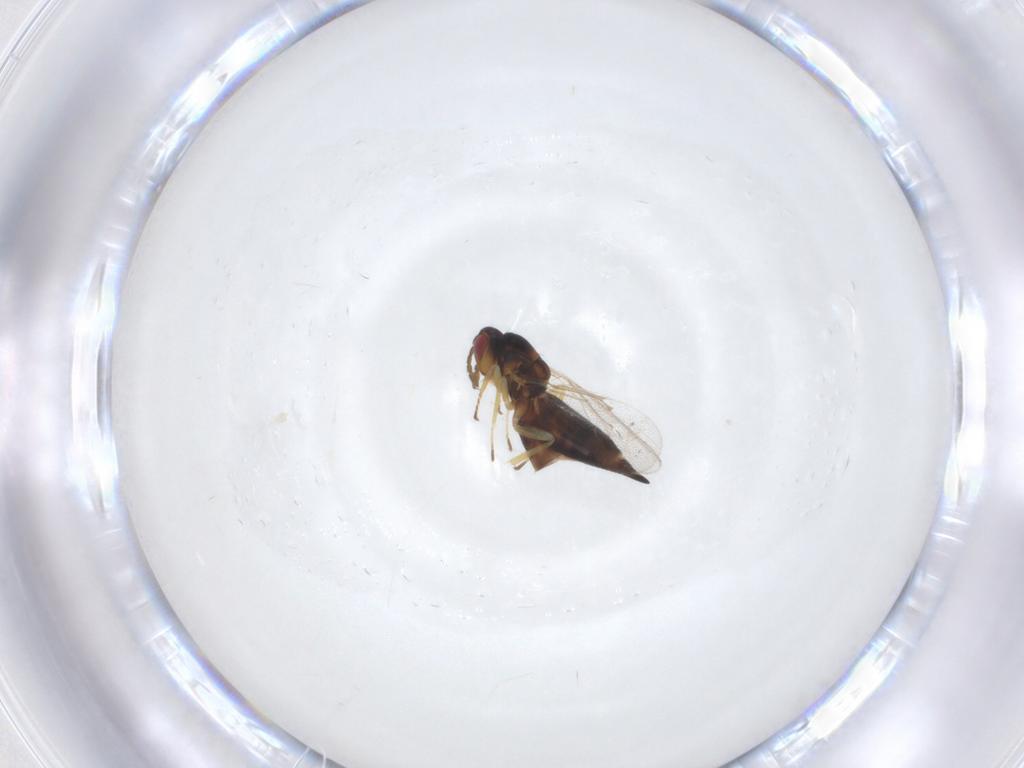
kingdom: Animalia
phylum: Arthropoda
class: Insecta
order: Hymenoptera
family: Eulophidae
